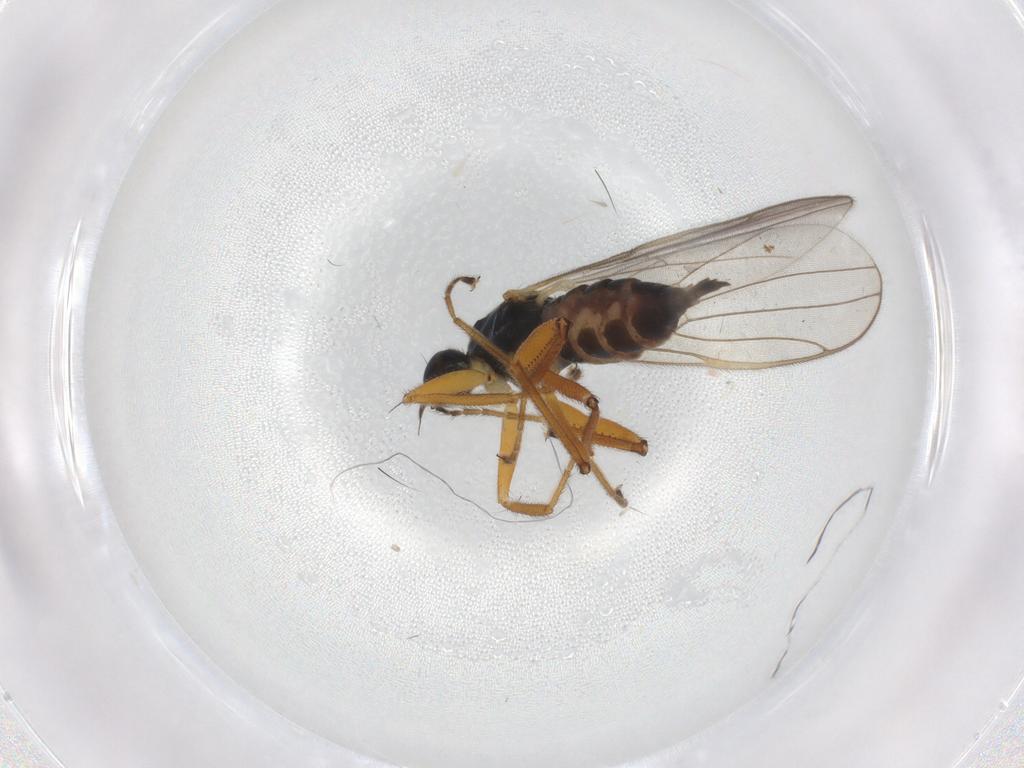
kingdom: Animalia
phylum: Arthropoda
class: Insecta
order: Diptera
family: Hybotidae
